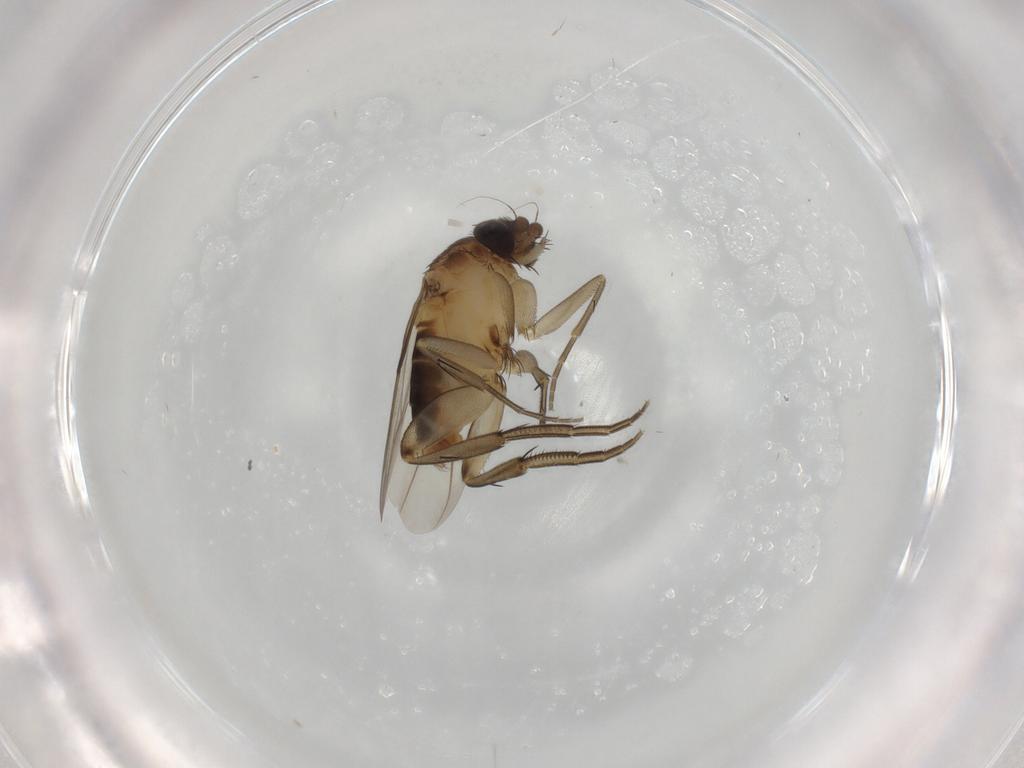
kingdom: Animalia
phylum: Arthropoda
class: Insecta
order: Diptera
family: Phoridae
